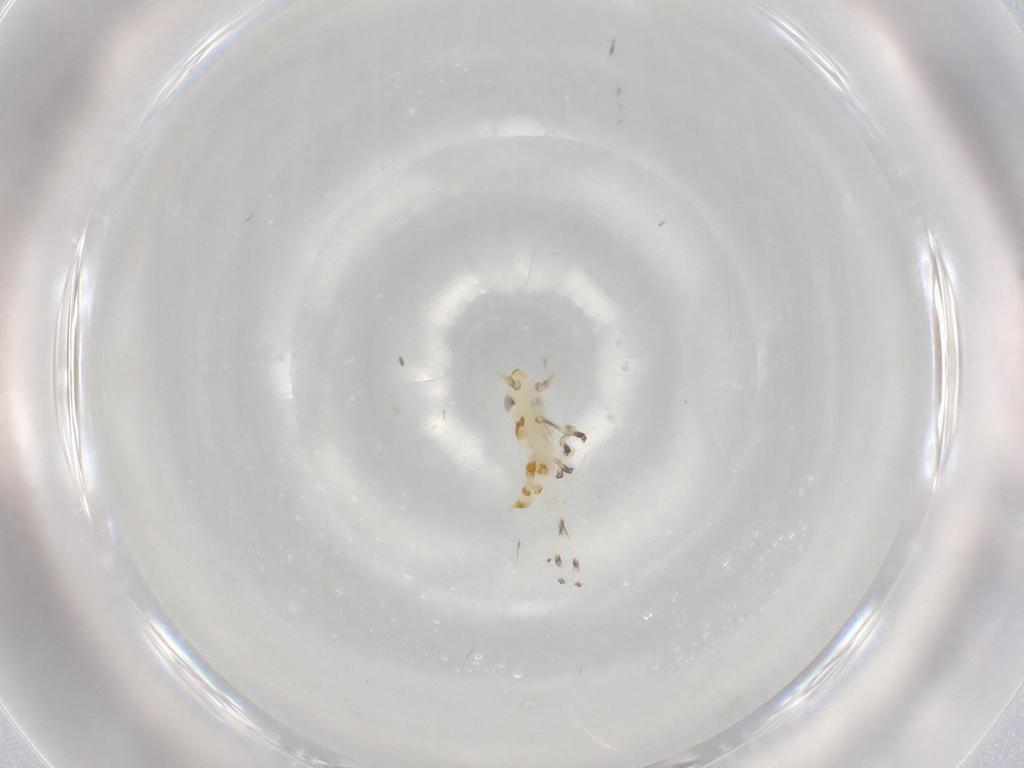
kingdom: Animalia
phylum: Arthropoda
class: Insecta
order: Hemiptera
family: Cicadellidae
